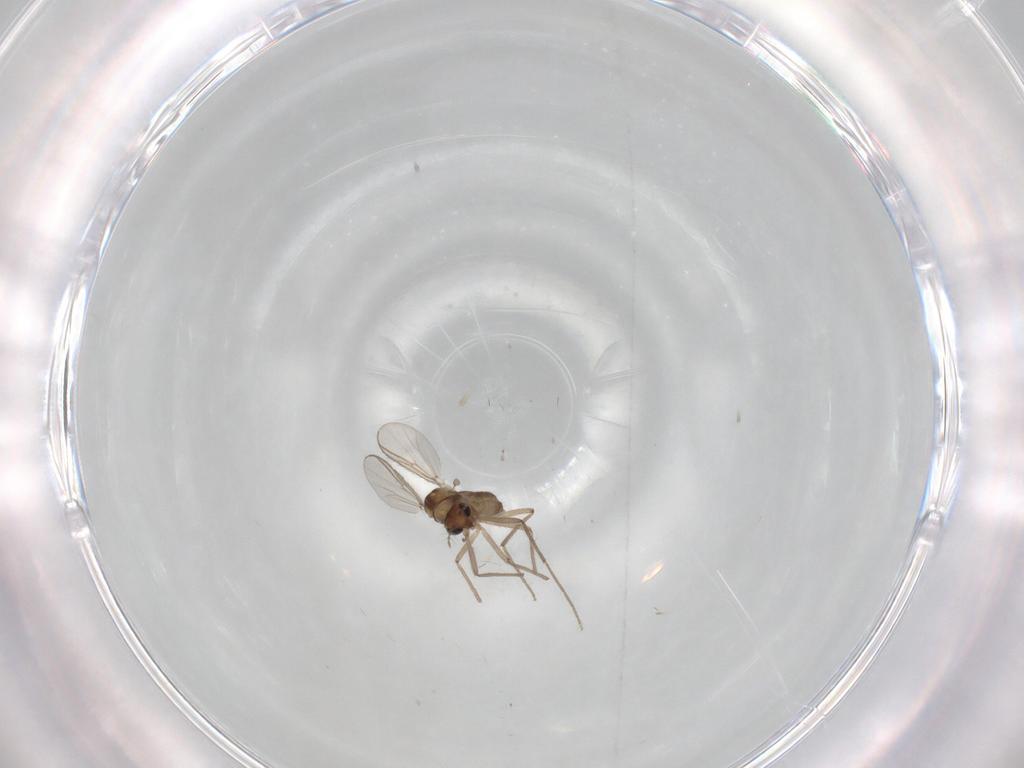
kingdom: Animalia
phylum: Arthropoda
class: Insecta
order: Diptera
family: Chironomidae
